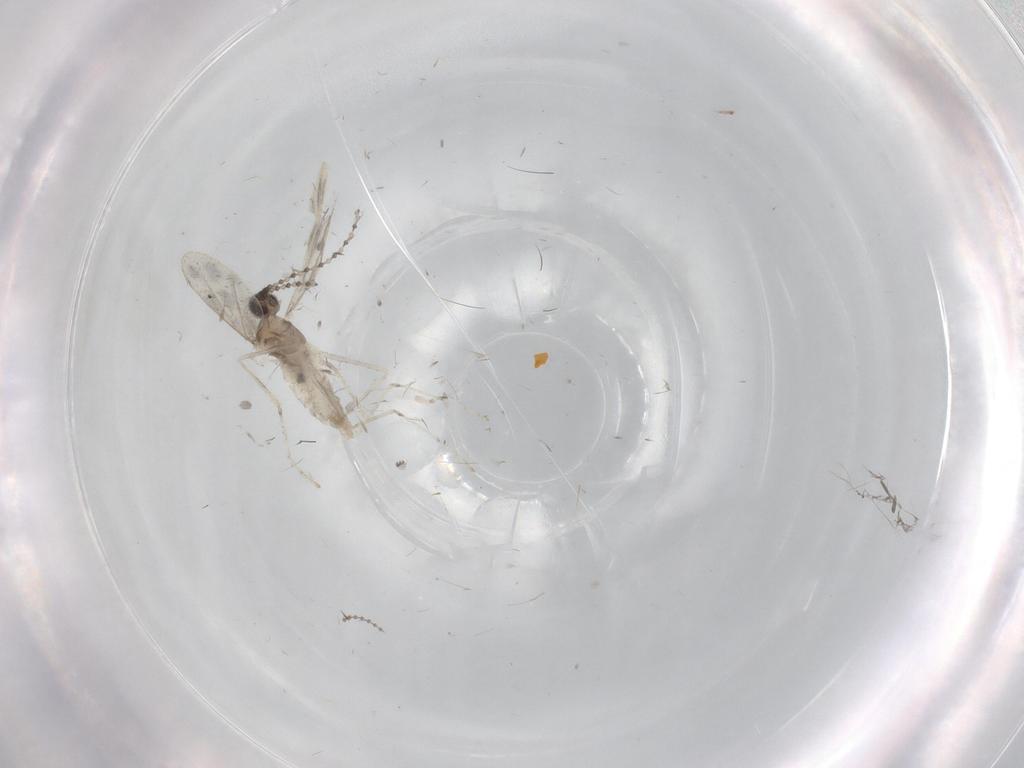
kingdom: Animalia
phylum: Arthropoda
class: Insecta
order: Diptera
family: Cecidomyiidae
